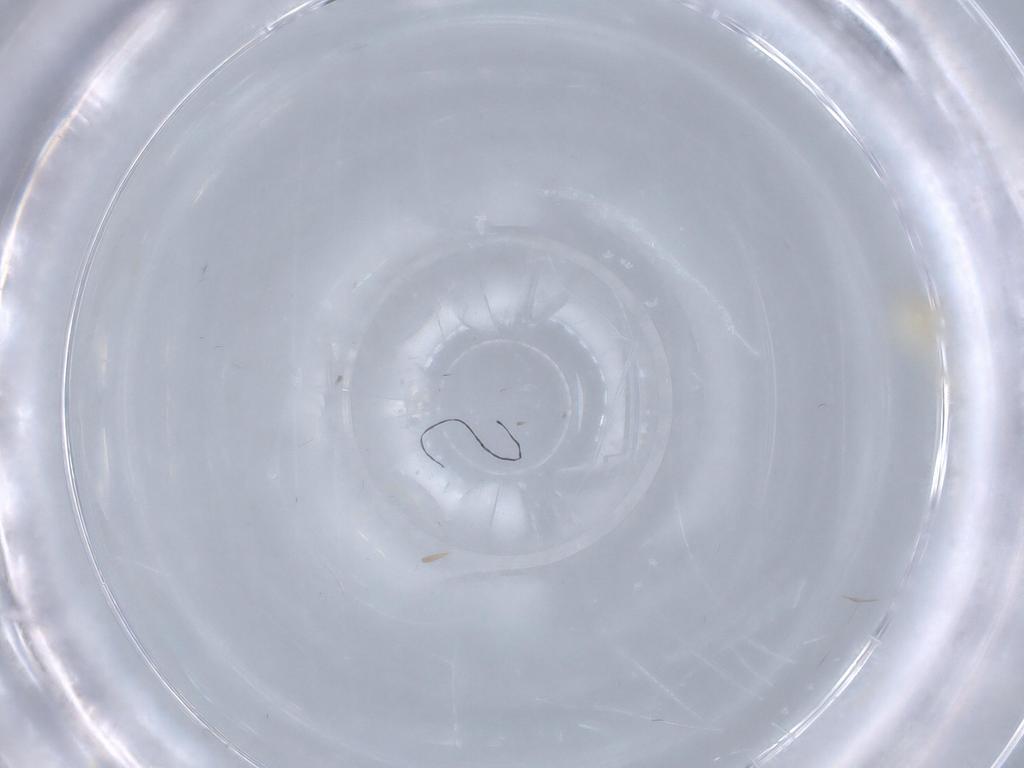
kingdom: Animalia
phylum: Arthropoda
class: Insecta
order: Diptera
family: Cecidomyiidae
